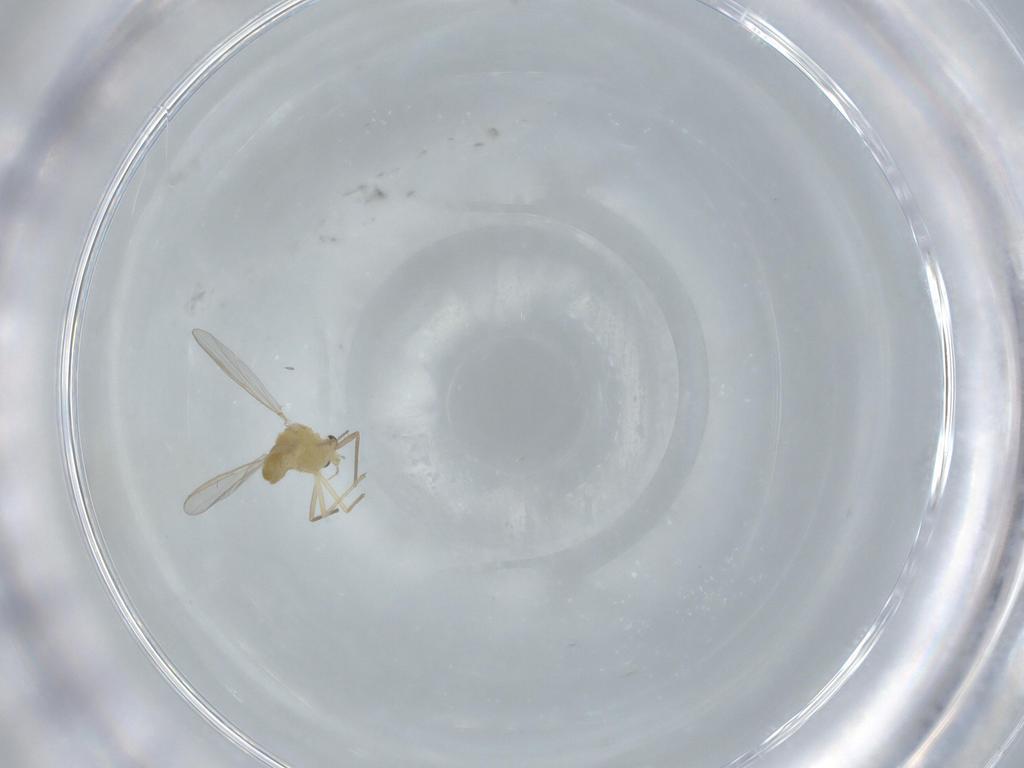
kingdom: Animalia
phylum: Arthropoda
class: Insecta
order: Diptera
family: Chironomidae
